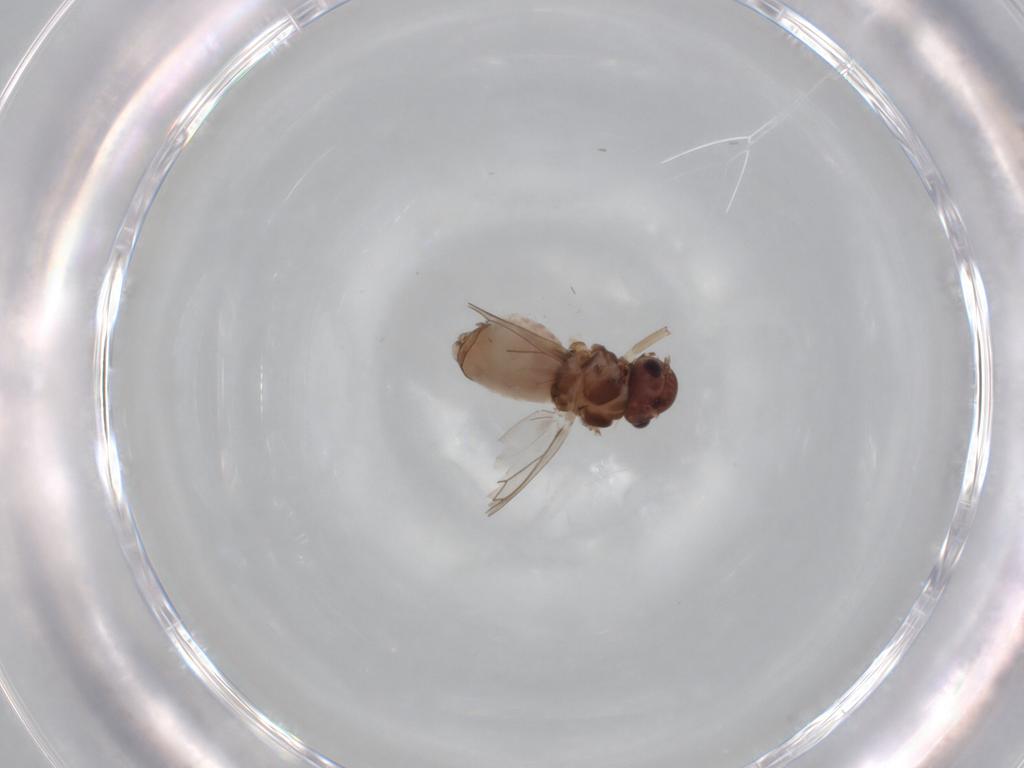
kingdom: Animalia
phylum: Arthropoda
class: Insecta
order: Psocodea
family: Peripsocidae
